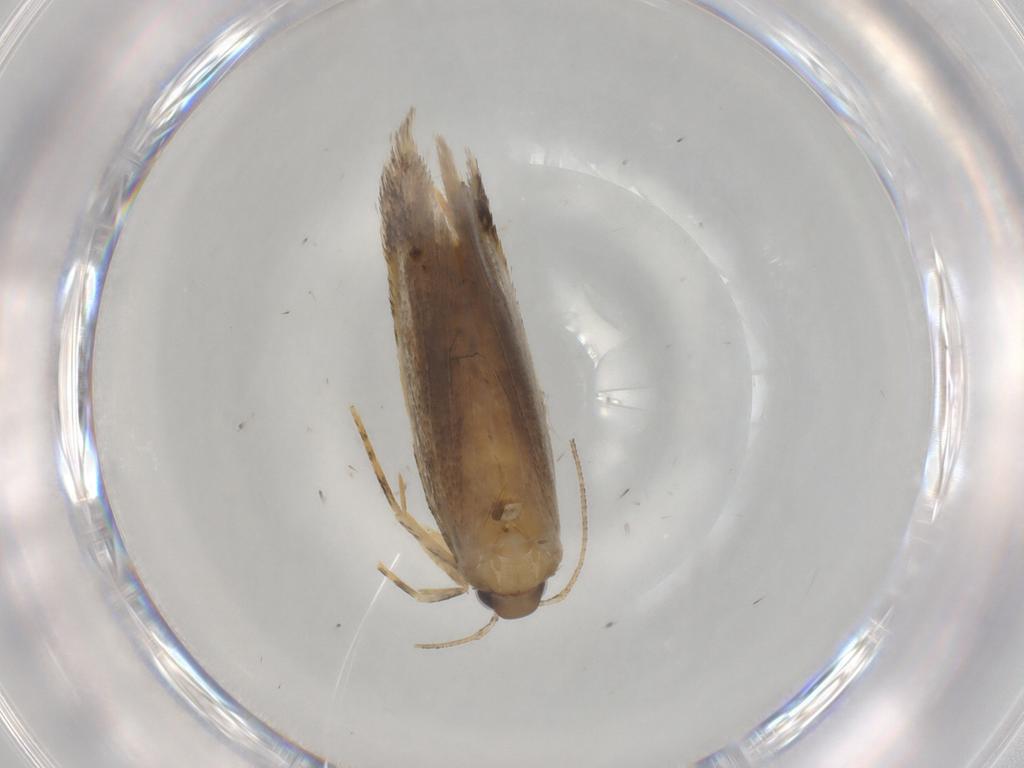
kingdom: Animalia
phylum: Arthropoda
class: Insecta
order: Lepidoptera
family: Autostichidae
